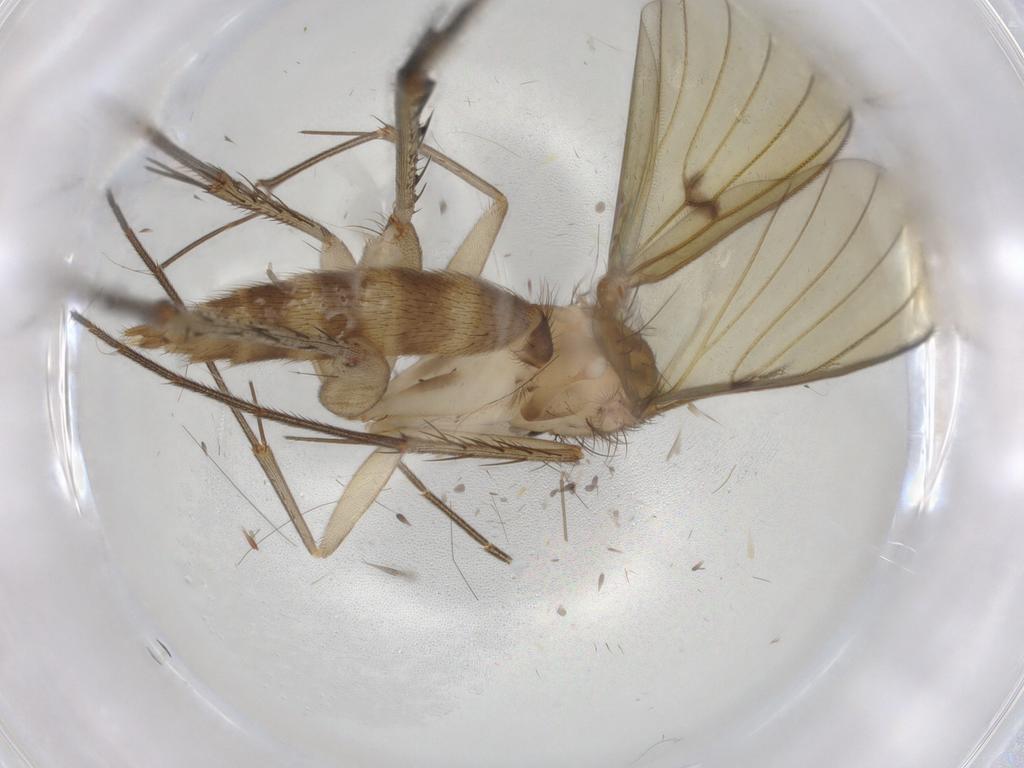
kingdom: Animalia
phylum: Arthropoda
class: Insecta
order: Diptera
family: Mycetophilidae
